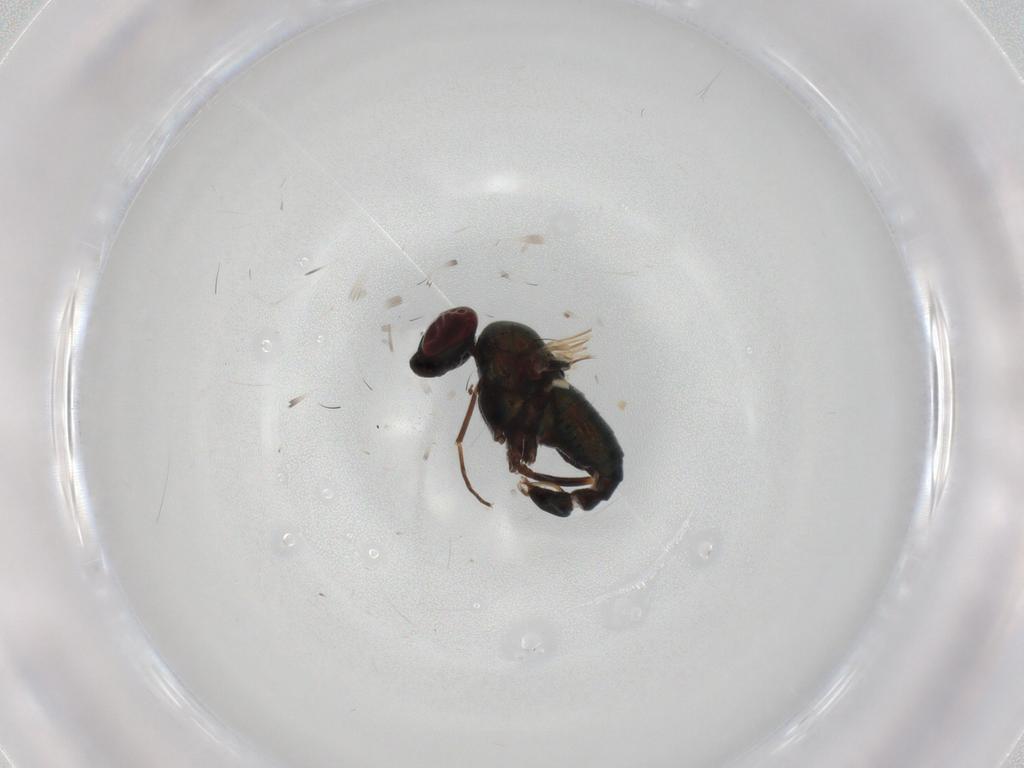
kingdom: Animalia
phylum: Arthropoda
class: Insecta
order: Diptera
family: Dolichopodidae
